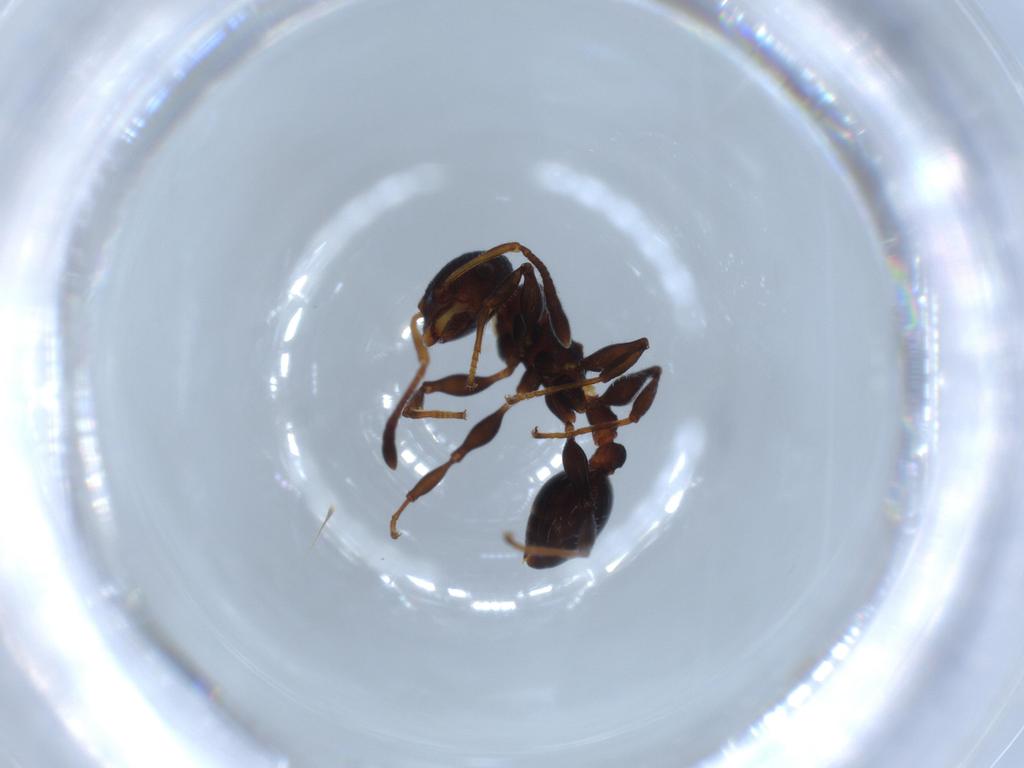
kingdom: Animalia
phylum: Arthropoda
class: Insecta
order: Hymenoptera
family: Formicidae
